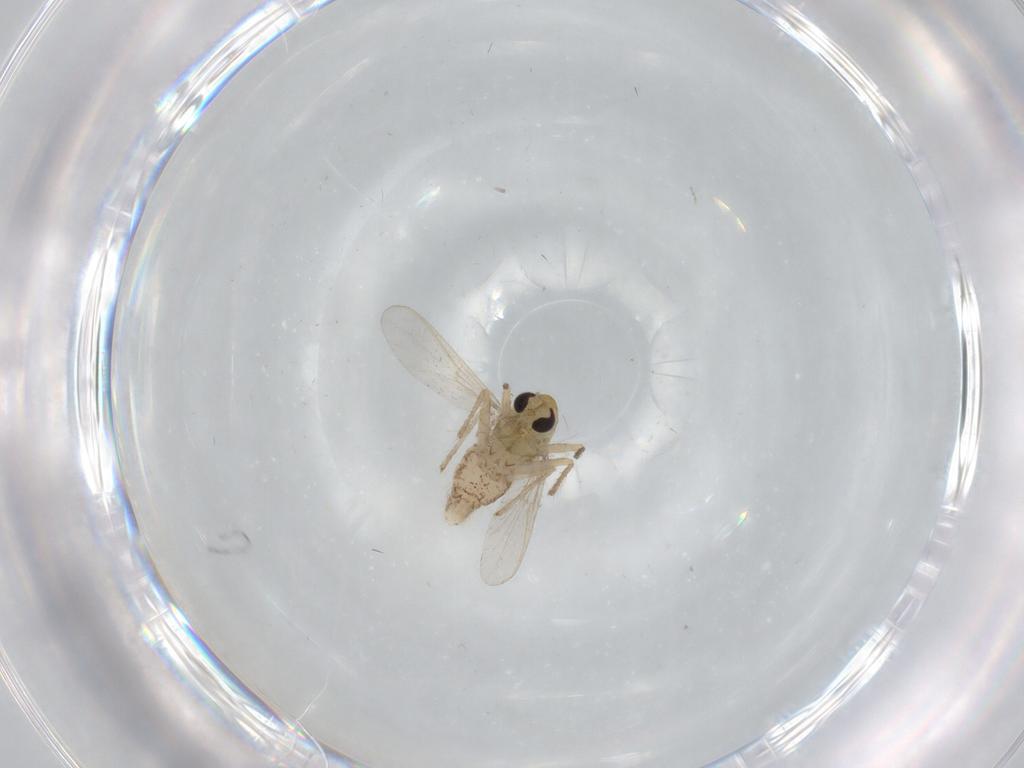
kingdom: Animalia
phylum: Arthropoda
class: Insecta
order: Diptera
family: Chironomidae
